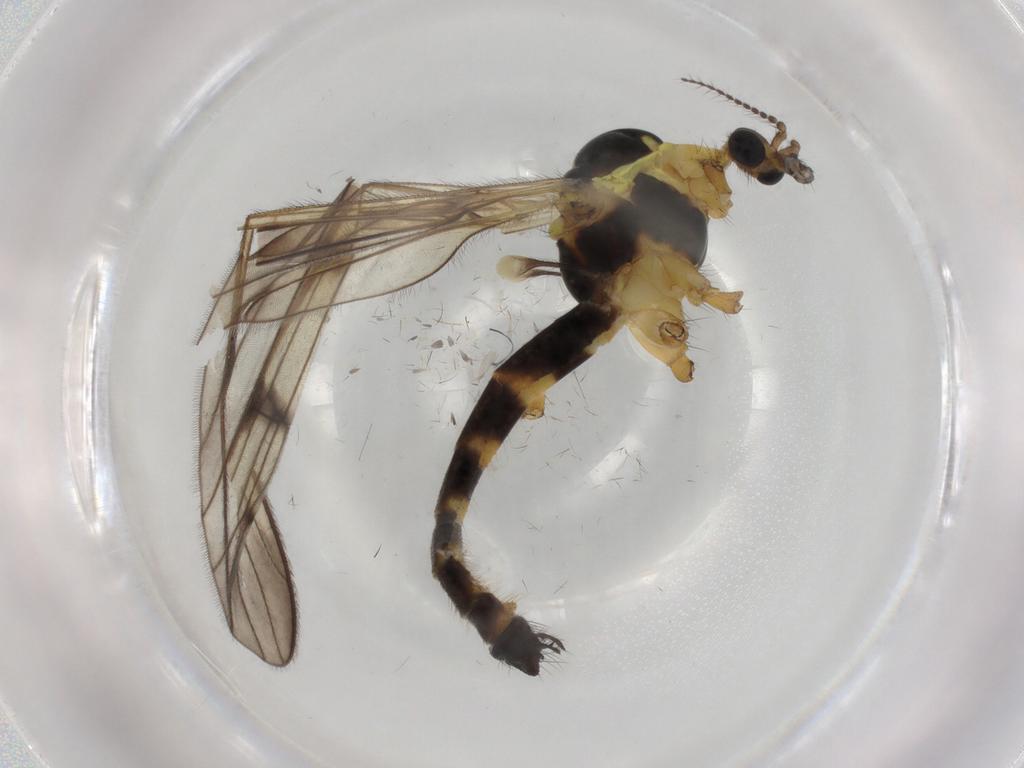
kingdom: Animalia
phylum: Arthropoda
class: Insecta
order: Diptera
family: Limoniidae
